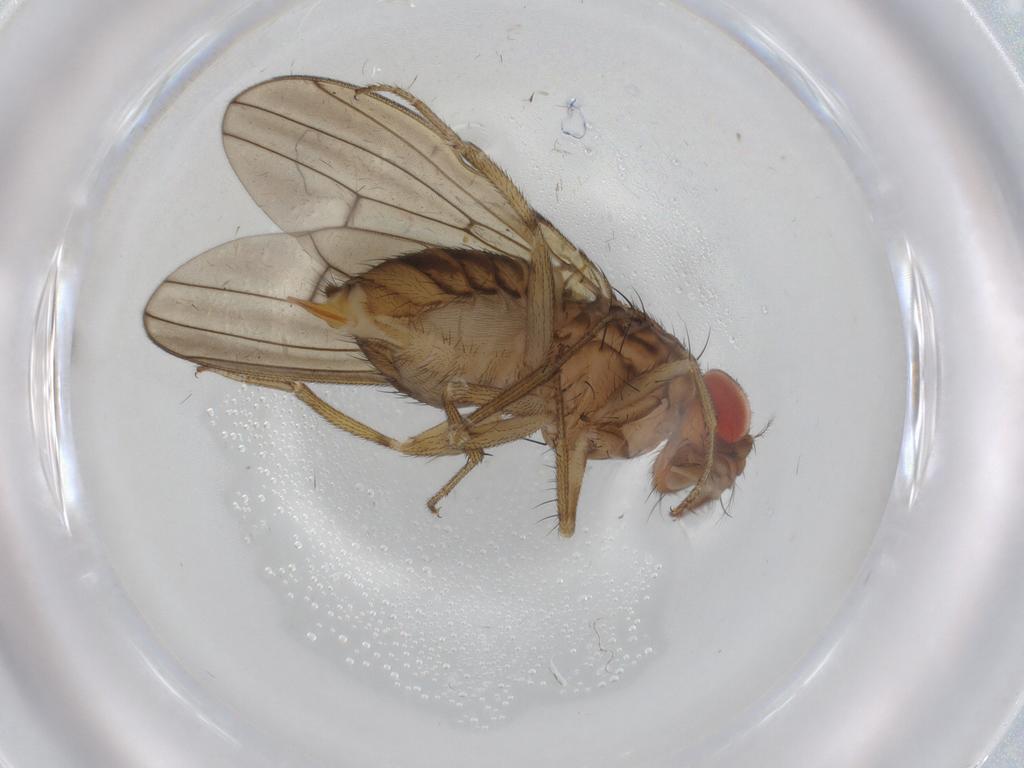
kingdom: Animalia
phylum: Arthropoda
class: Insecta
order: Diptera
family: Drosophilidae
